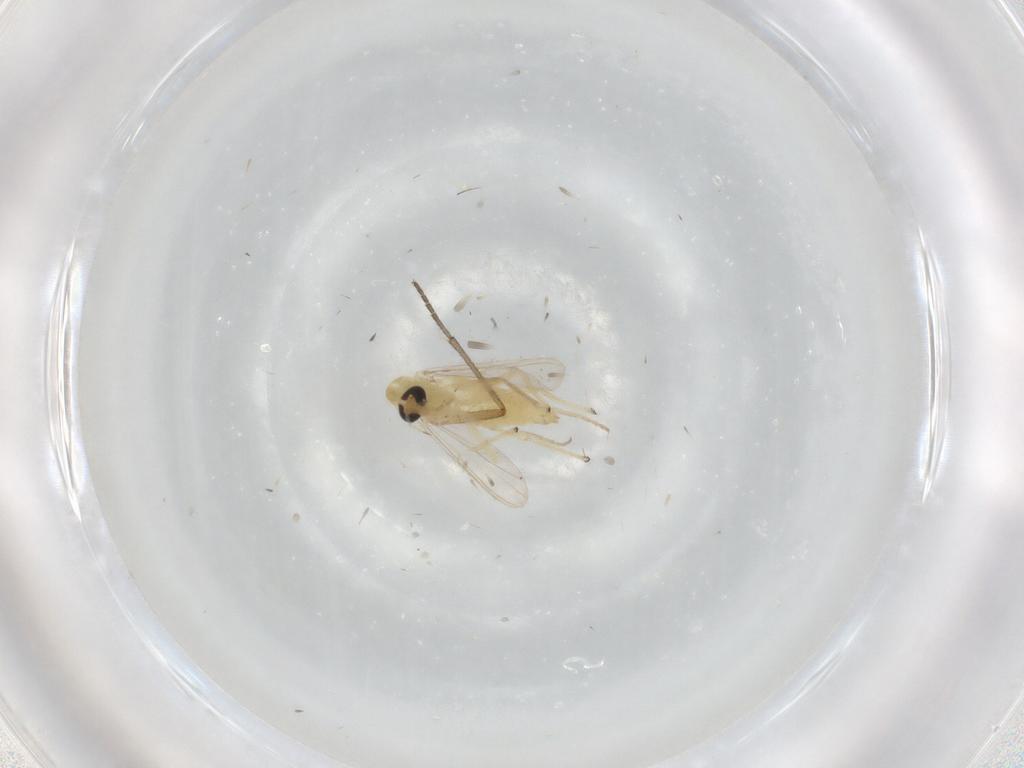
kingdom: Animalia
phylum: Arthropoda
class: Insecta
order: Diptera
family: Chironomidae
